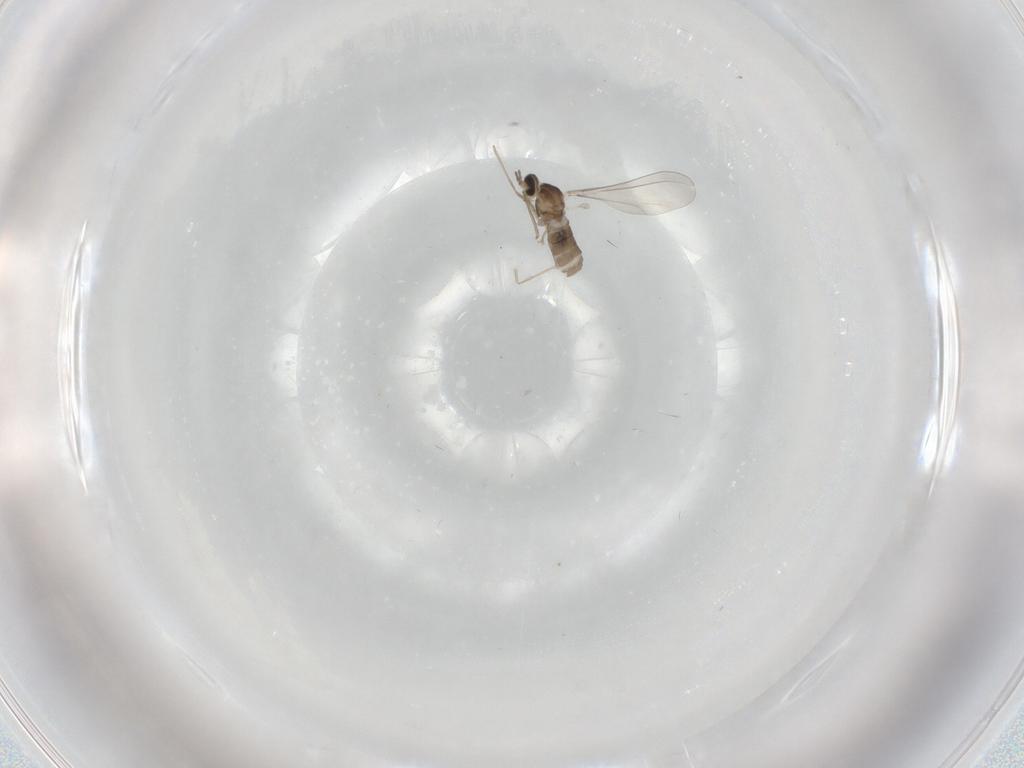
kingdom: Animalia
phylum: Arthropoda
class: Insecta
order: Diptera
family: Cecidomyiidae
